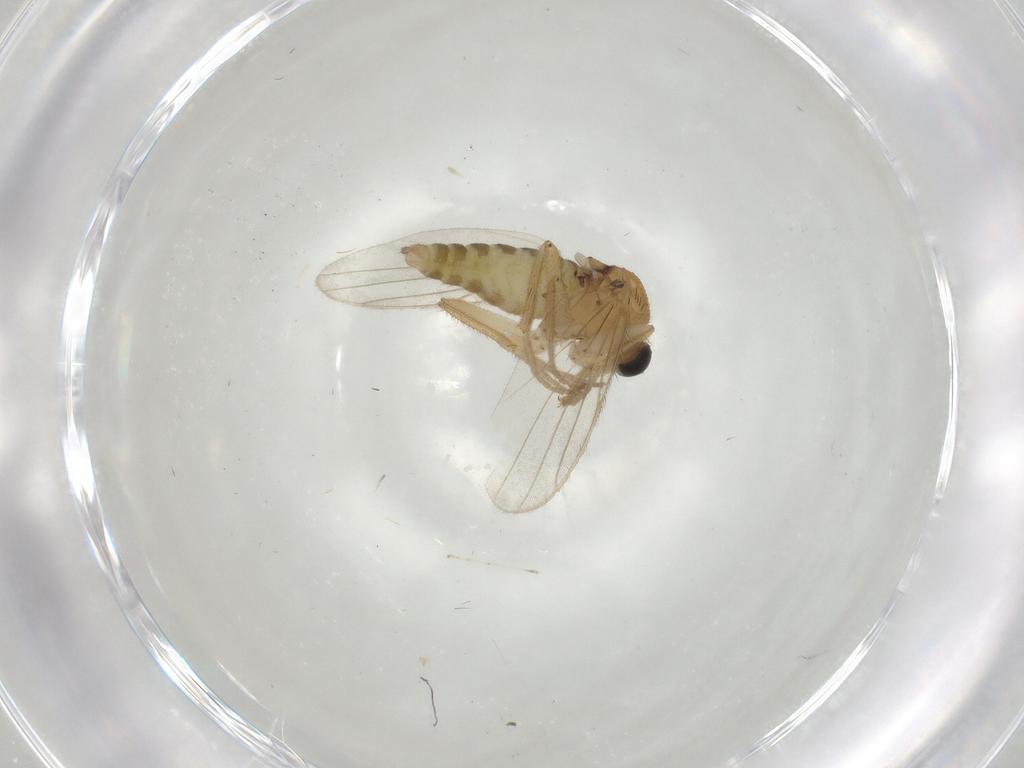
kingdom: Animalia
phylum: Arthropoda
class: Insecta
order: Diptera
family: Hybotidae
